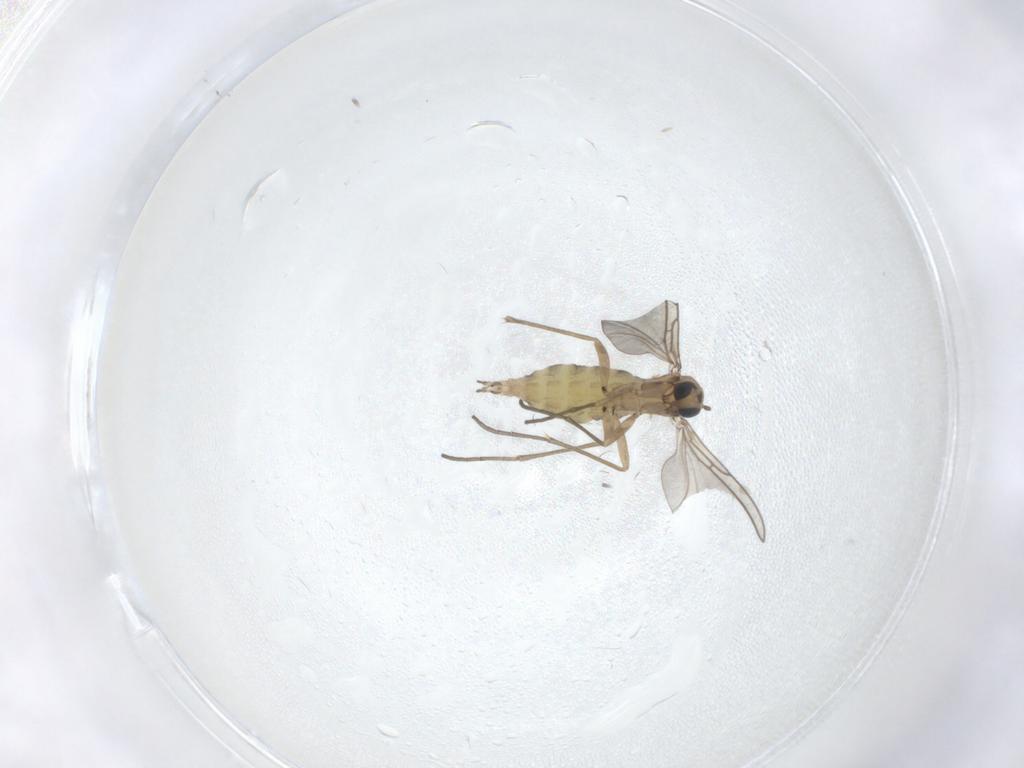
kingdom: Animalia
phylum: Arthropoda
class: Insecta
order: Diptera
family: Sciaridae
